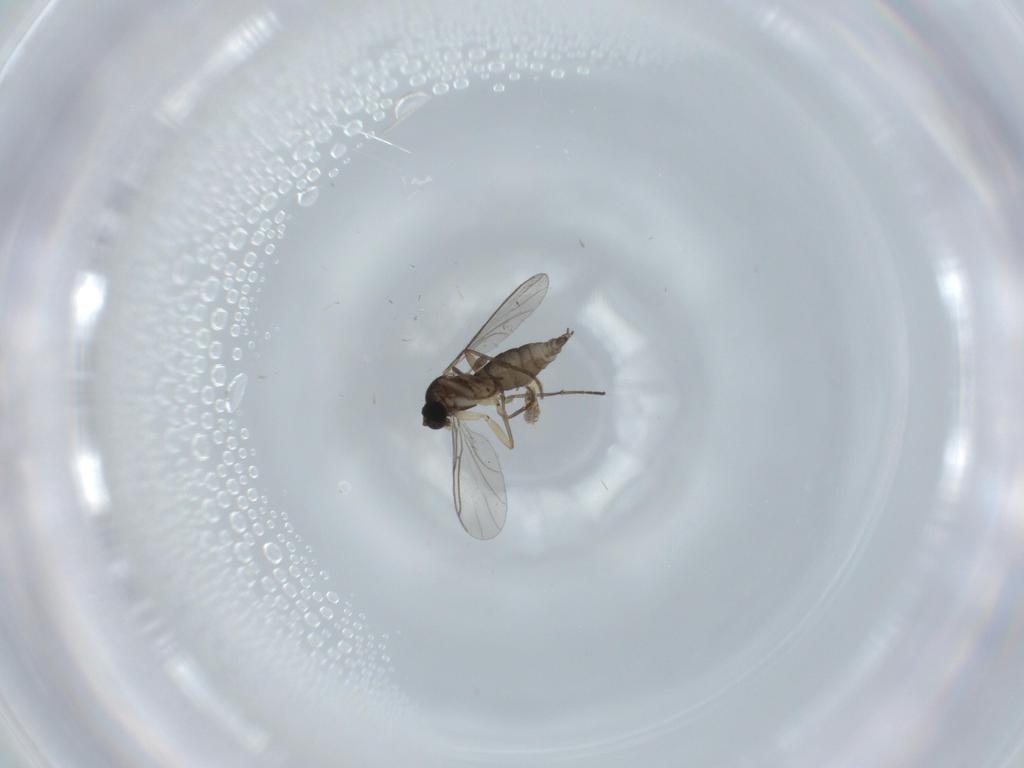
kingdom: Animalia
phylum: Arthropoda
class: Insecta
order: Diptera
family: Sciaridae
